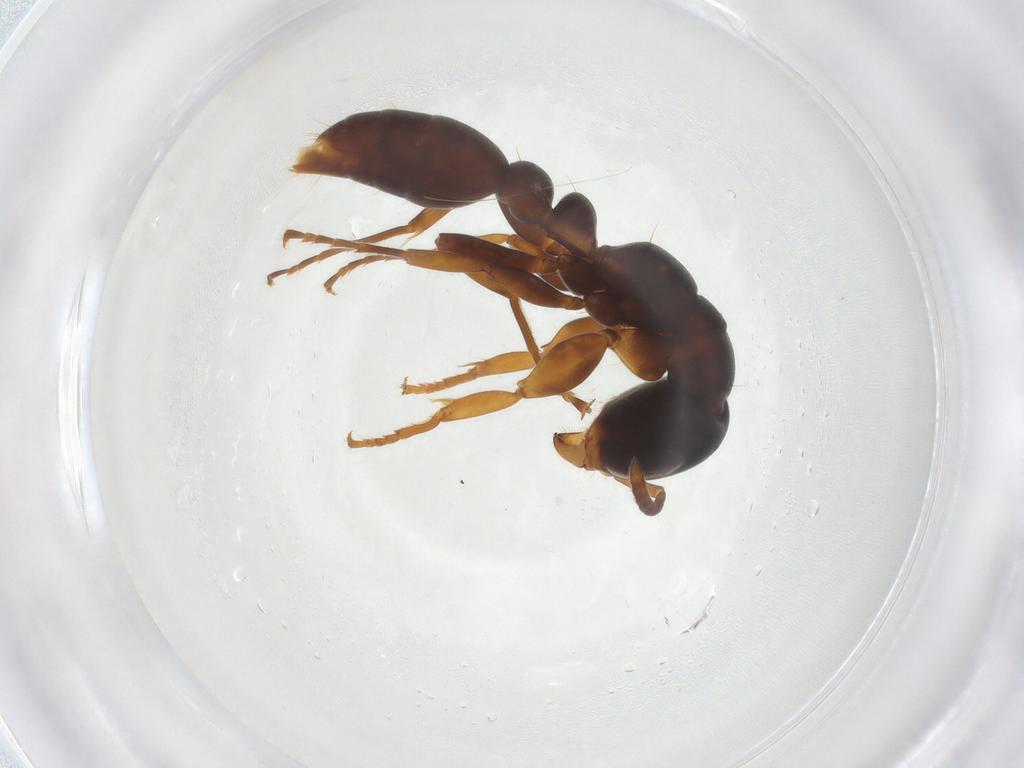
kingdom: Animalia
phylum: Arthropoda
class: Insecta
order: Hymenoptera
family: Formicidae
